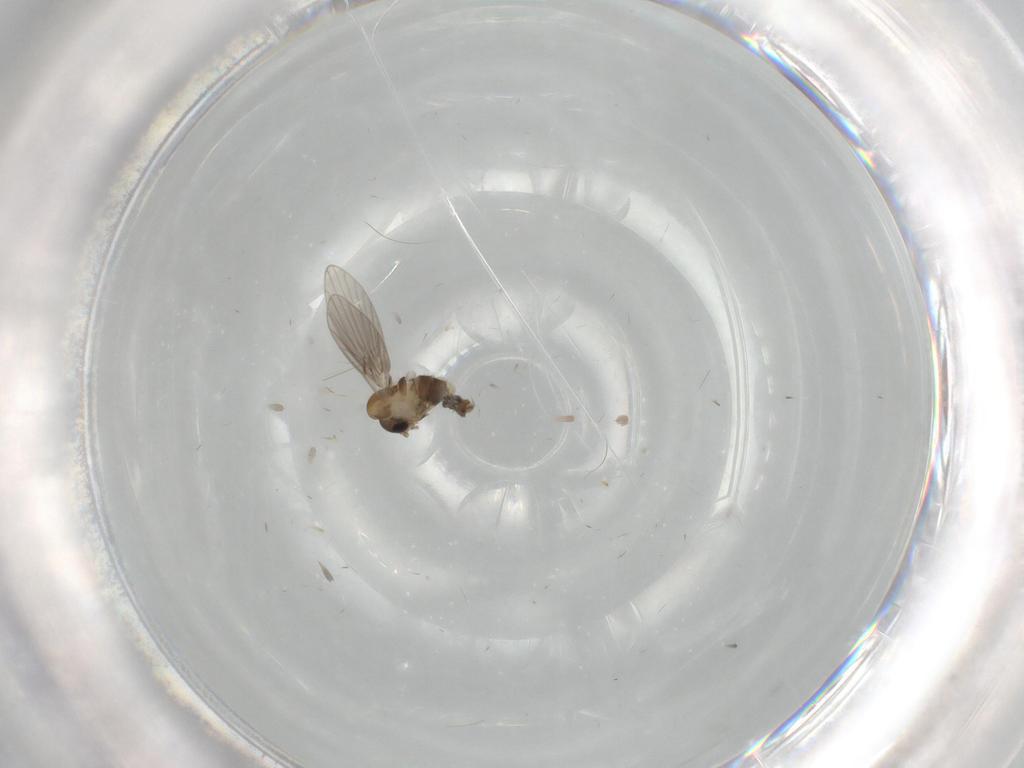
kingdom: Animalia
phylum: Arthropoda
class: Insecta
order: Diptera
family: Psychodidae
